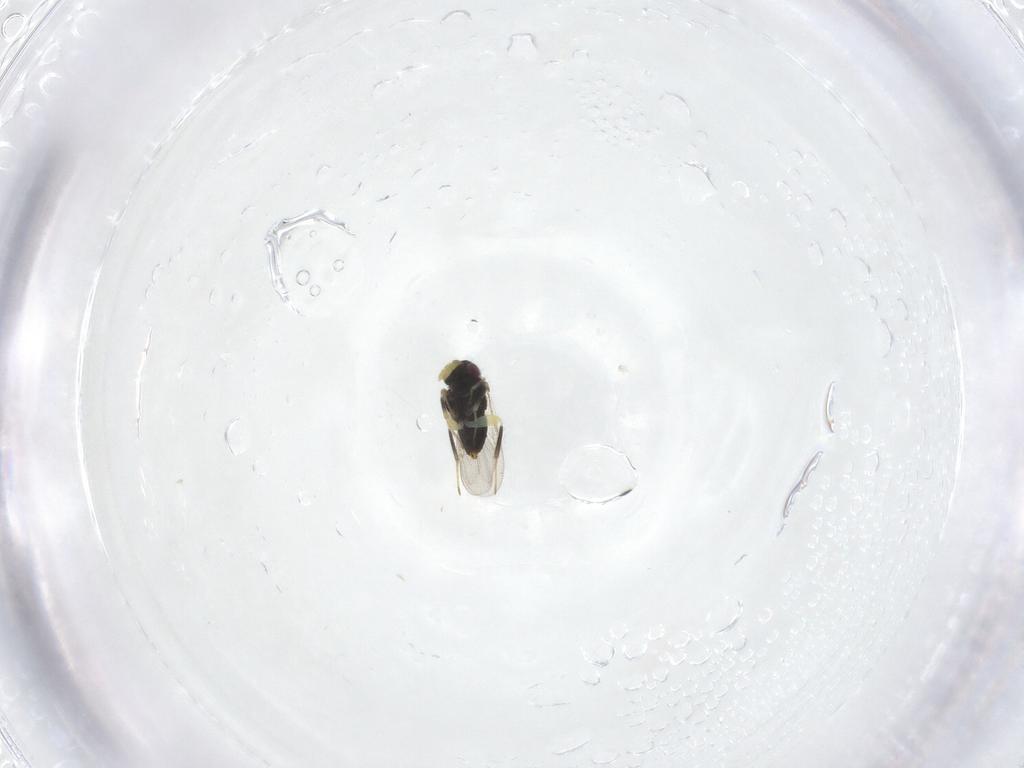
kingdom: Animalia
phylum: Arthropoda
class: Insecta
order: Hymenoptera
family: Aphelinidae
